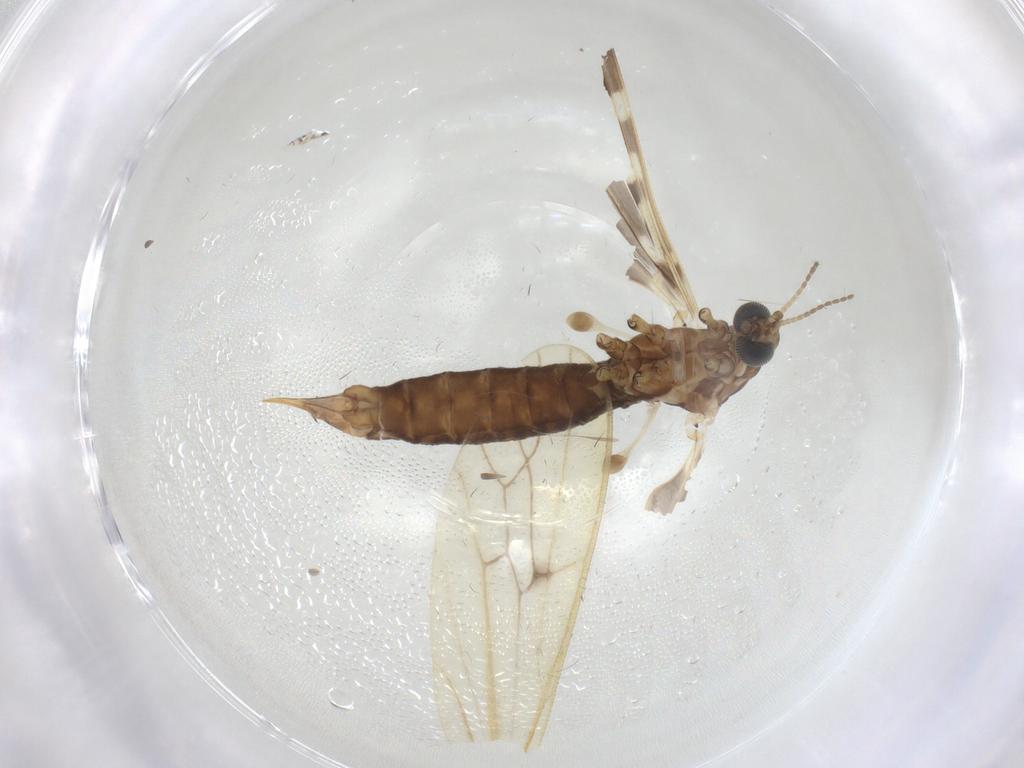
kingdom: Animalia
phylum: Arthropoda
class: Insecta
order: Diptera
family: Limoniidae
